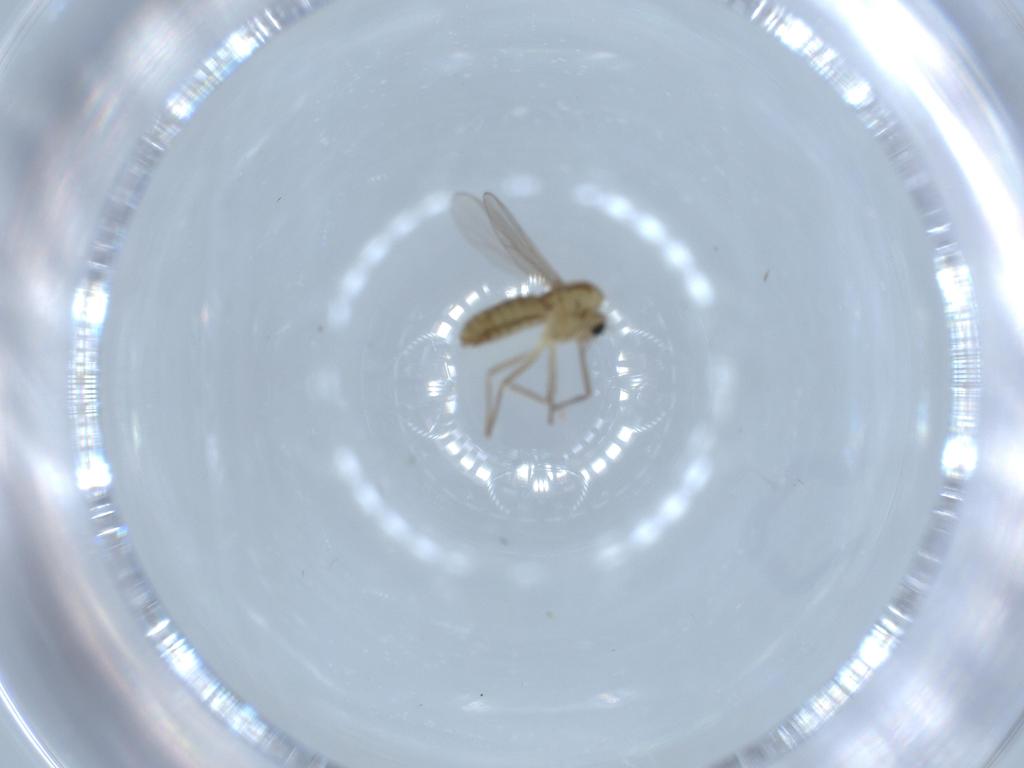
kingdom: Animalia
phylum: Arthropoda
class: Insecta
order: Diptera
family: Chironomidae
